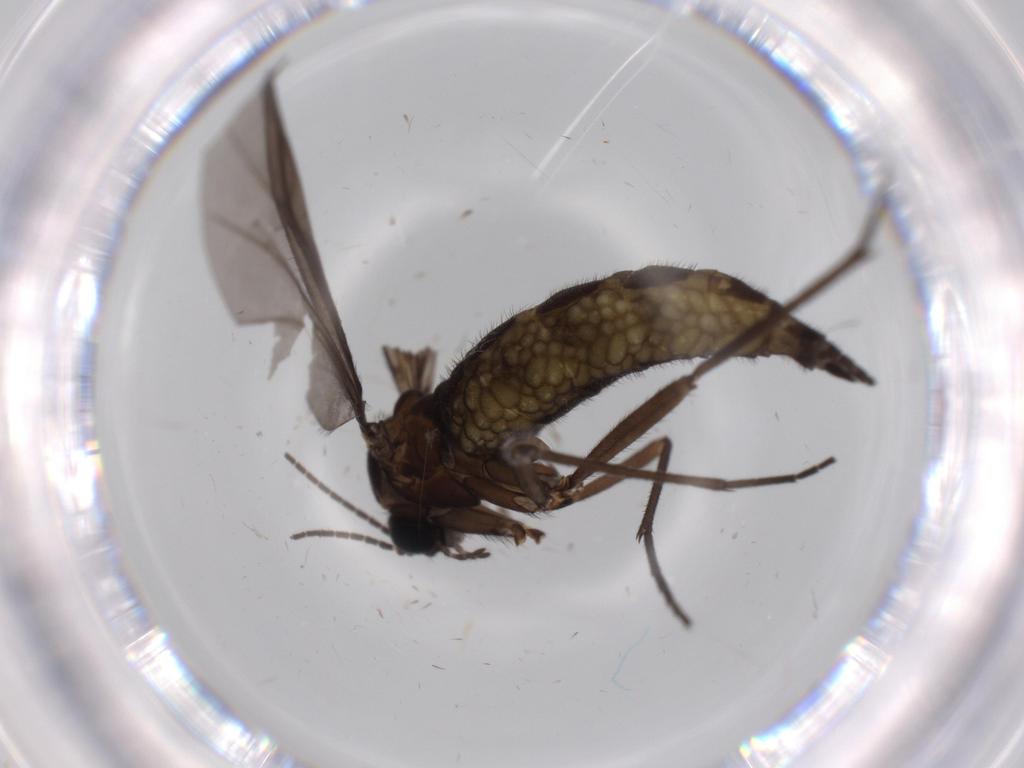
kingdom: Animalia
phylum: Arthropoda
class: Insecta
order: Diptera
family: Sciaridae
